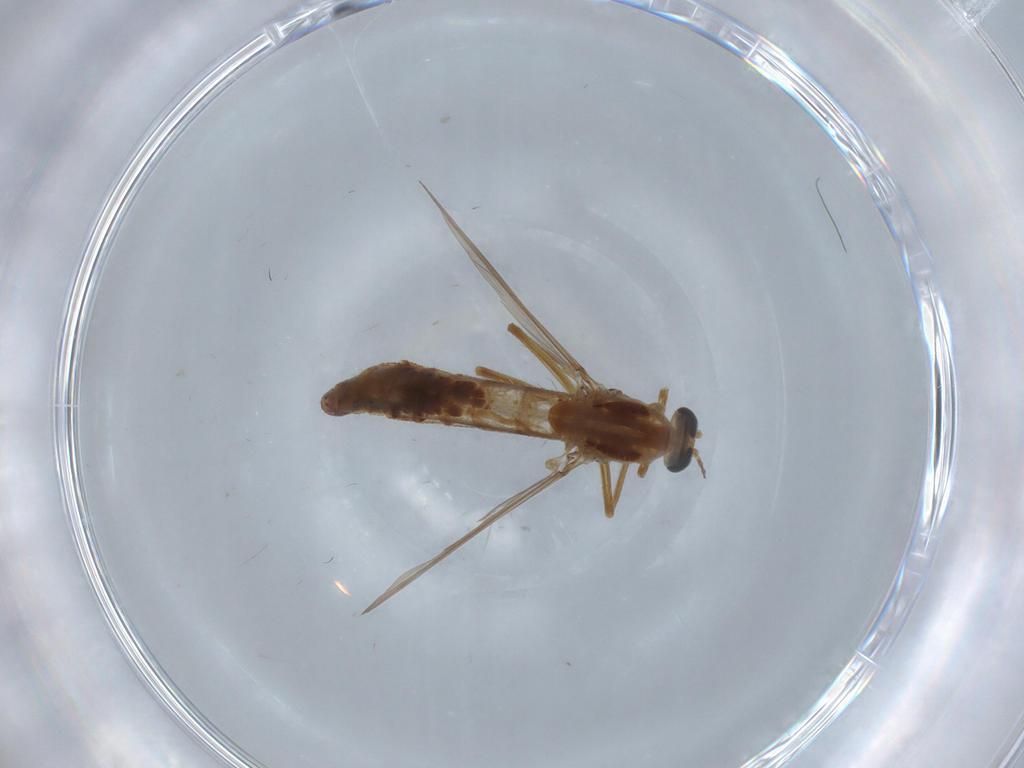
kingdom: Animalia
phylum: Arthropoda
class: Insecta
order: Diptera
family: Chironomidae
